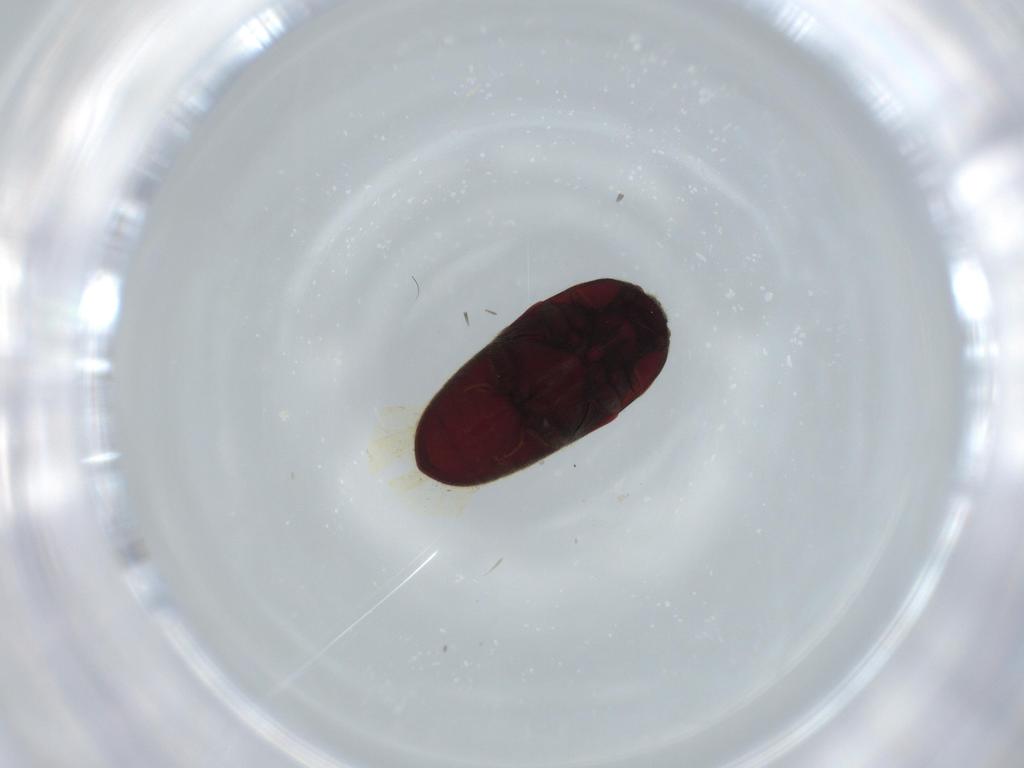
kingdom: Animalia
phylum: Arthropoda
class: Insecta
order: Coleoptera
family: Throscidae
